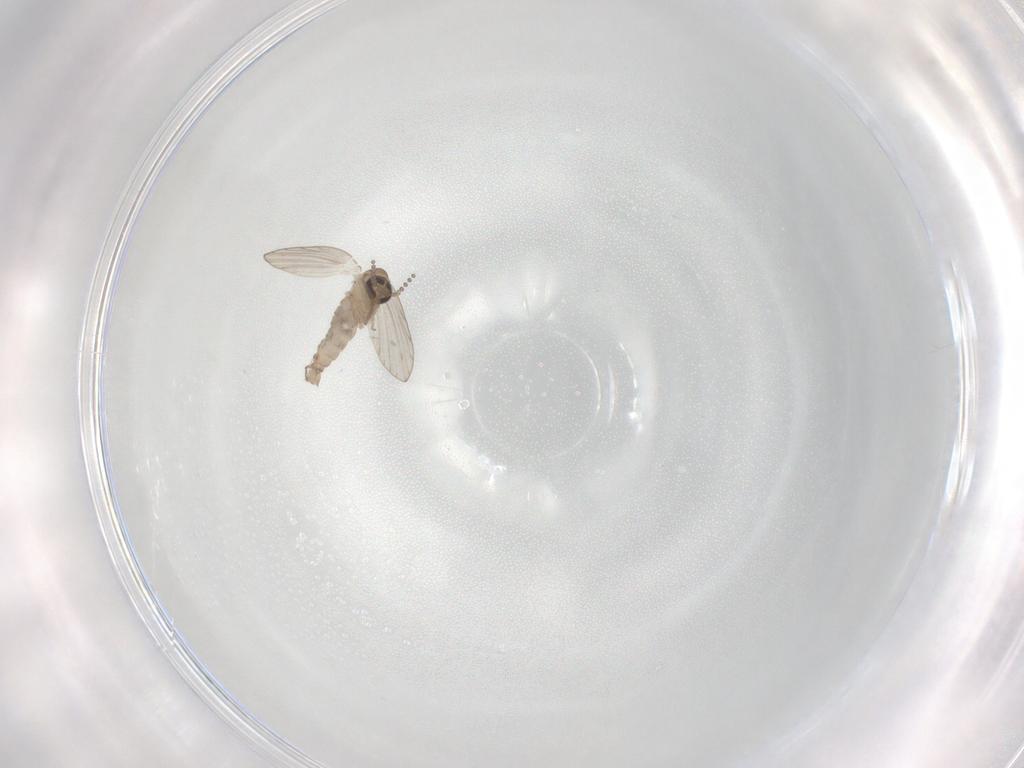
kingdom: Animalia
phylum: Arthropoda
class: Insecta
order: Diptera
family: Psychodidae
